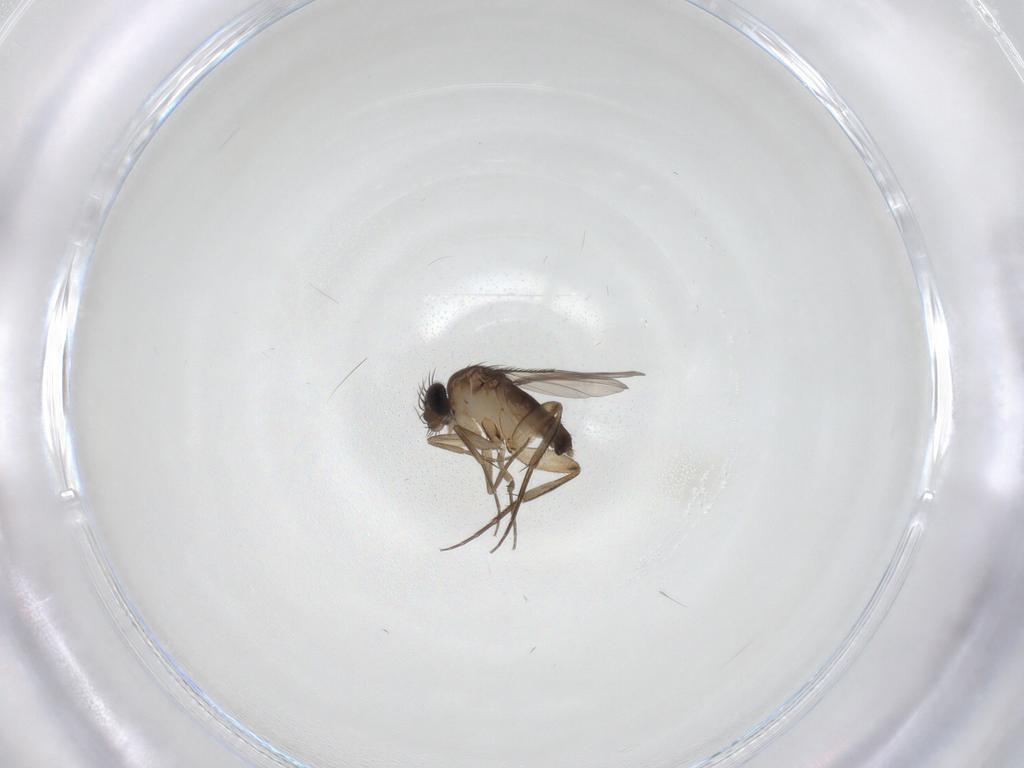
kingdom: Animalia
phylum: Arthropoda
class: Insecta
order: Diptera
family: Phoridae
